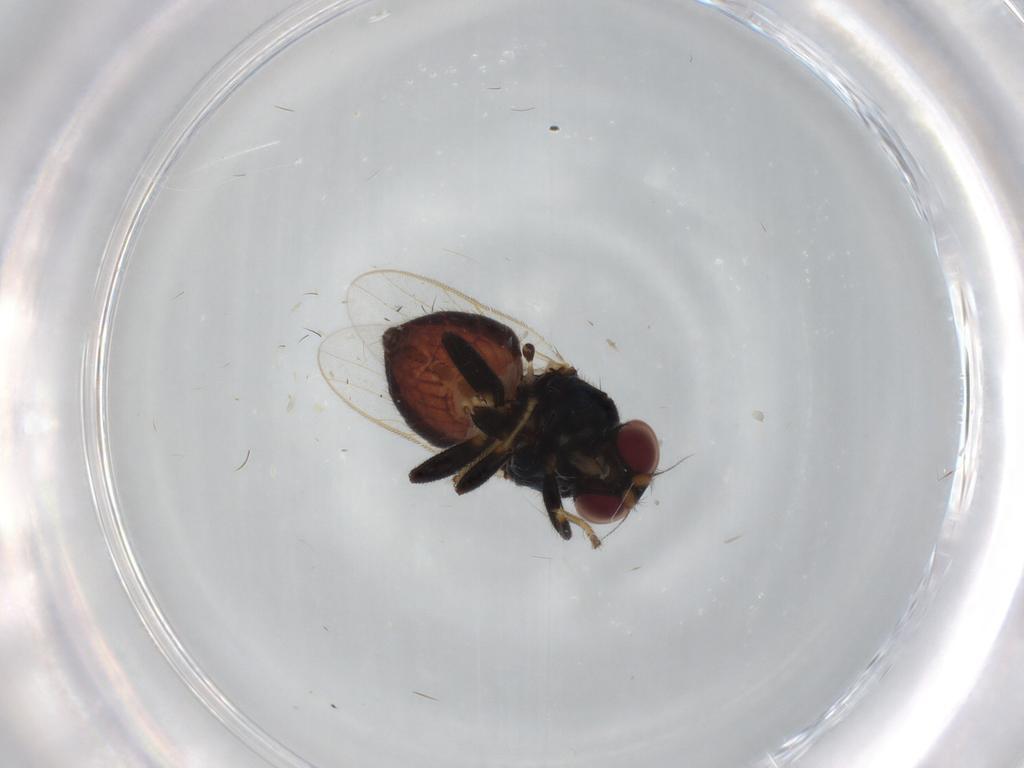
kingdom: Animalia
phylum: Arthropoda
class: Insecta
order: Diptera
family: Chloropidae
